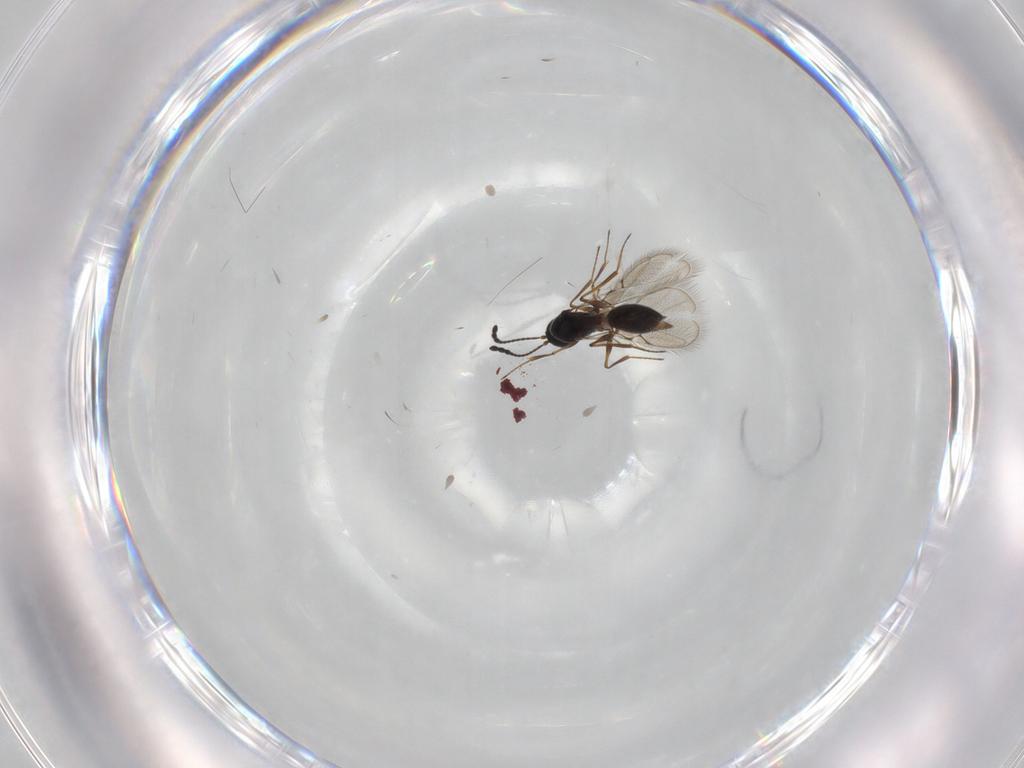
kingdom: Animalia
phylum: Arthropoda
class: Insecta
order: Hymenoptera
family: Figitidae
